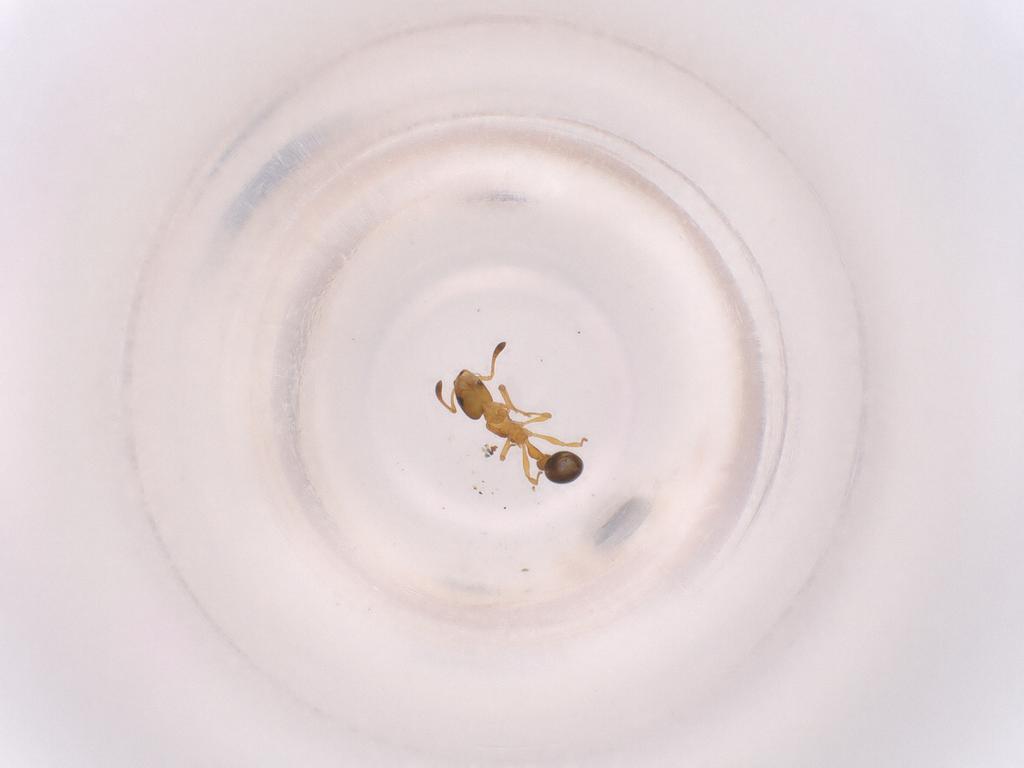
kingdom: Animalia
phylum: Arthropoda
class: Insecta
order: Hymenoptera
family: Formicidae
